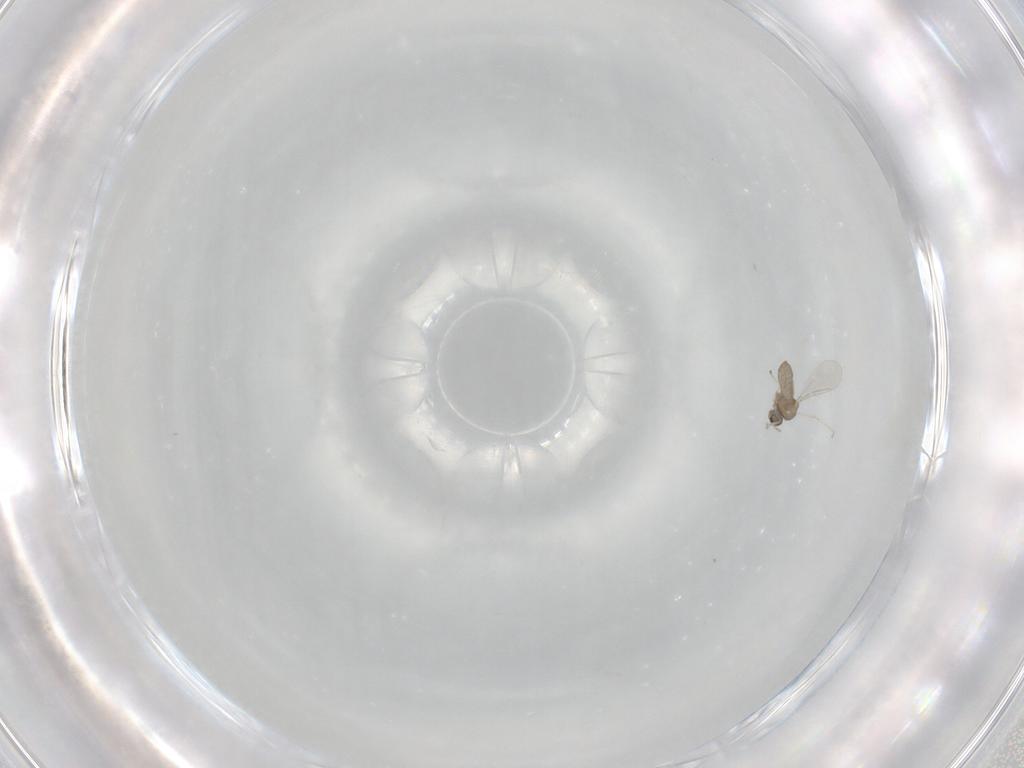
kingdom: Animalia
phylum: Arthropoda
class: Insecta
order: Diptera
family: Cecidomyiidae
